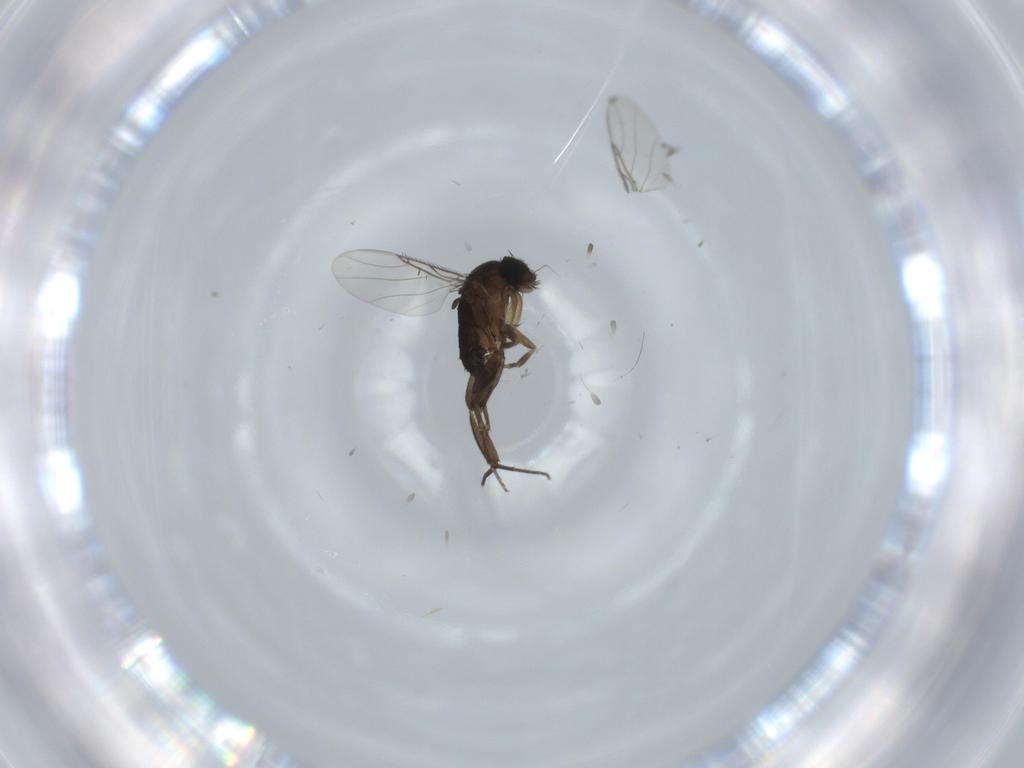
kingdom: Animalia
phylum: Arthropoda
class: Insecta
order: Diptera
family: Phoridae
